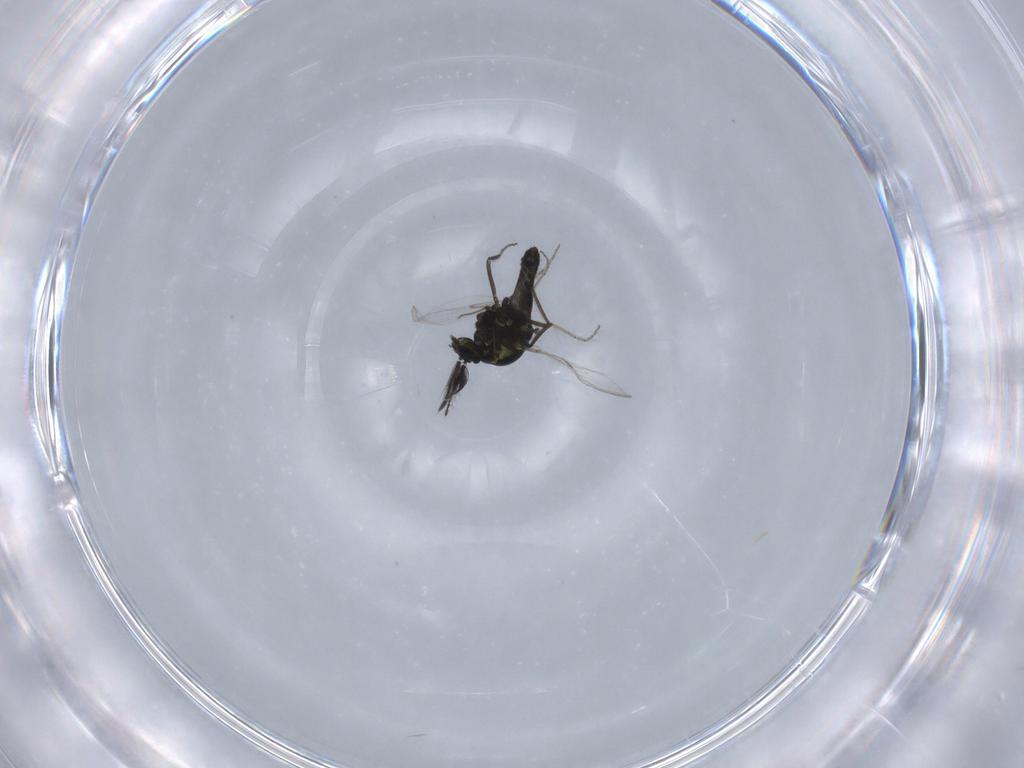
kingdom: Animalia
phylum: Arthropoda
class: Insecta
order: Diptera
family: Ceratopogonidae
